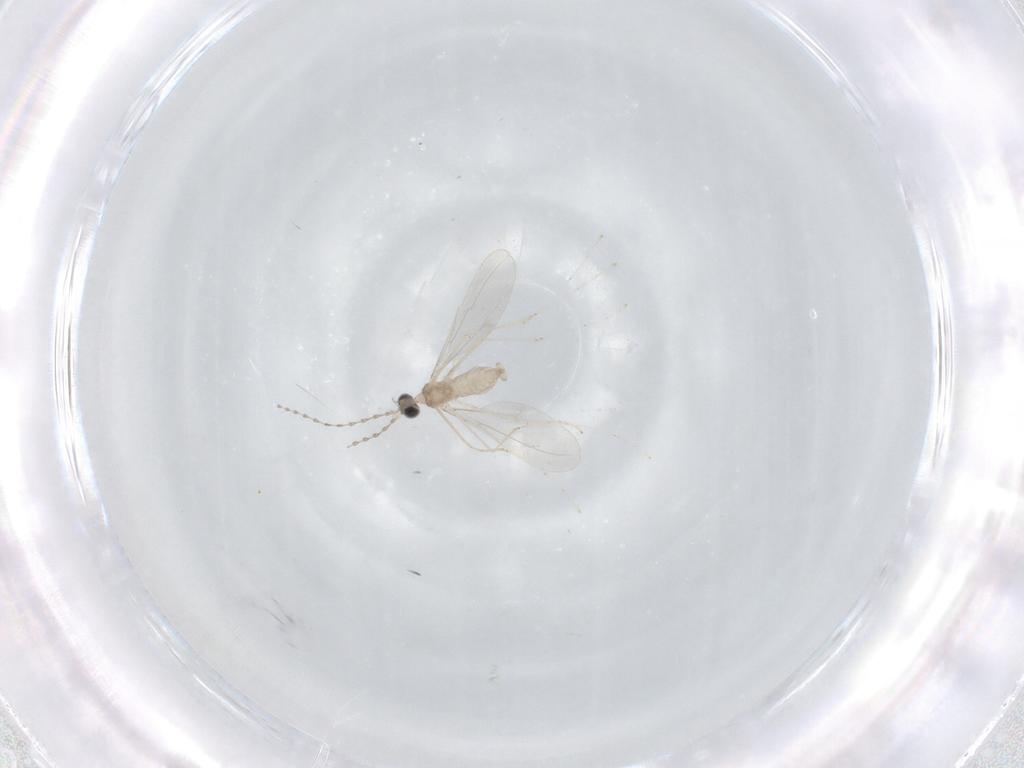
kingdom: Animalia
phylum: Arthropoda
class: Insecta
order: Diptera
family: Cecidomyiidae
